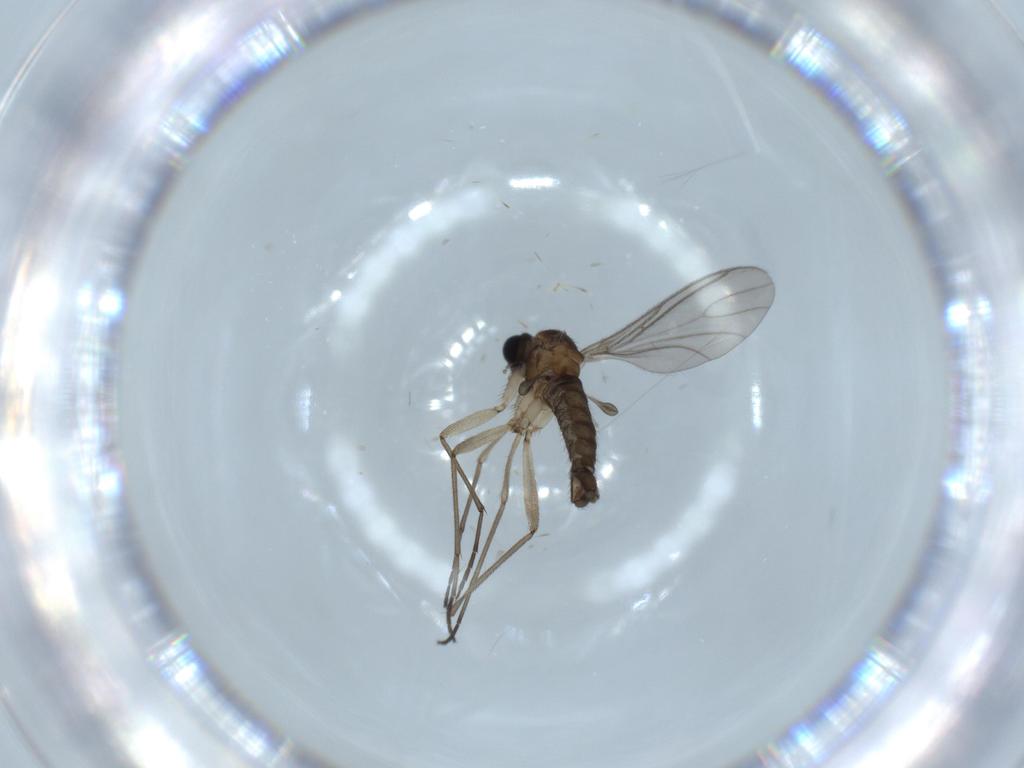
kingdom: Animalia
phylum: Arthropoda
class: Insecta
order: Diptera
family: Sciaridae
